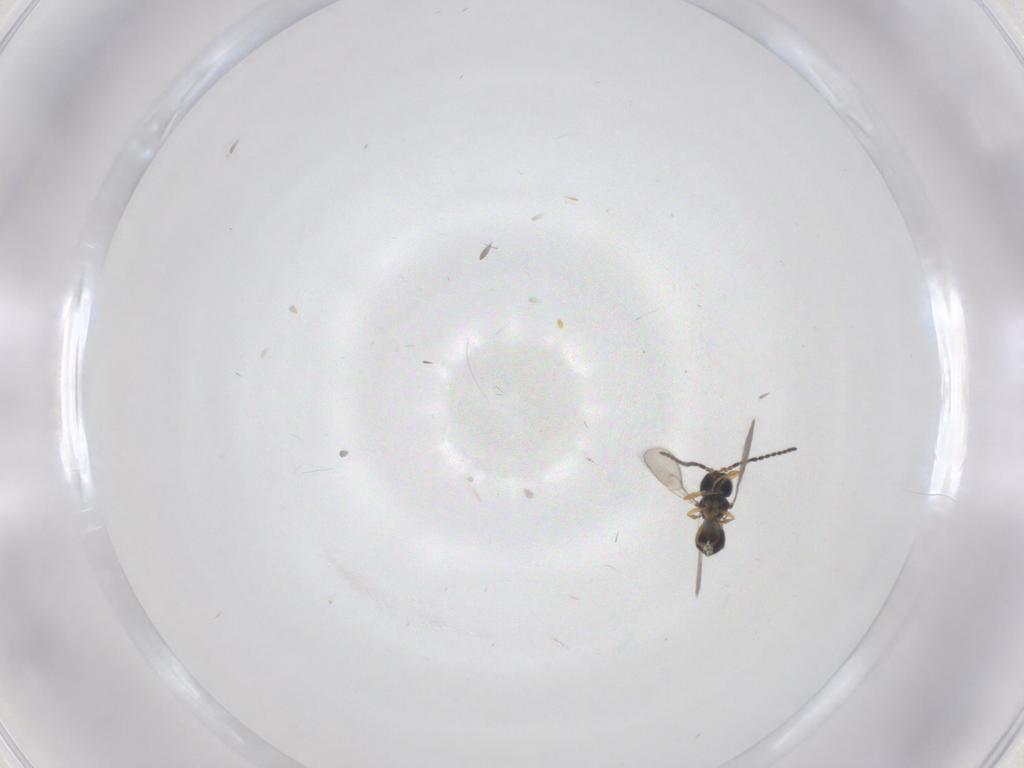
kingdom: Animalia
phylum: Arthropoda
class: Insecta
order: Hymenoptera
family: Scelionidae
